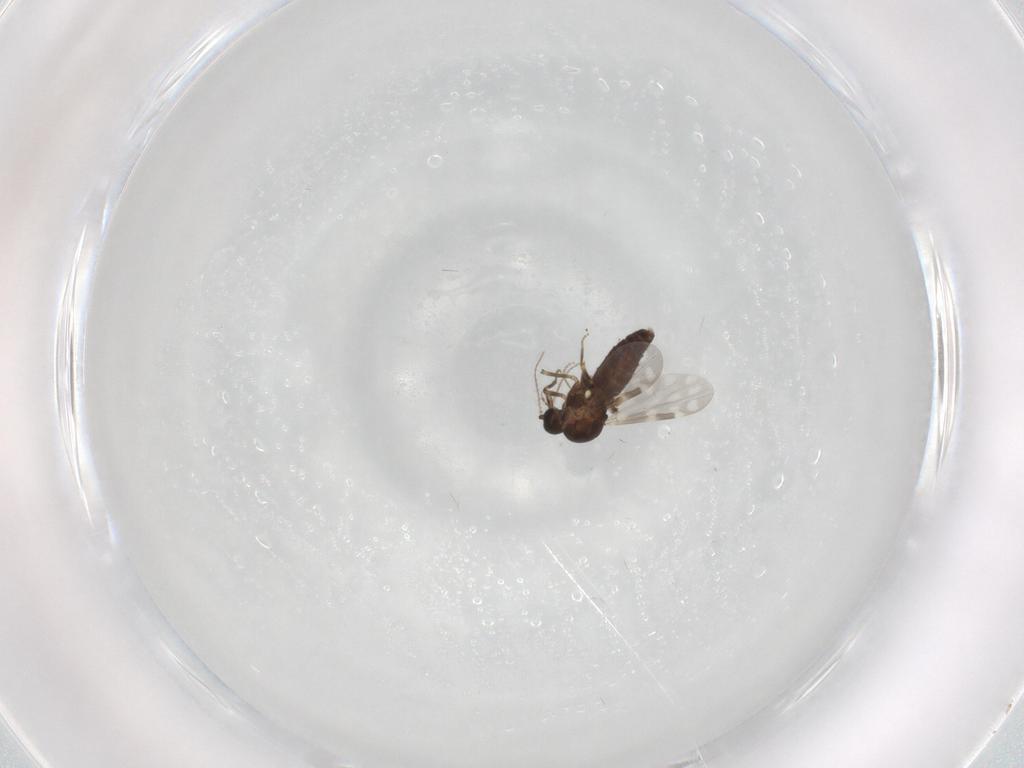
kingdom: Animalia
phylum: Arthropoda
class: Insecta
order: Diptera
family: Ceratopogonidae
